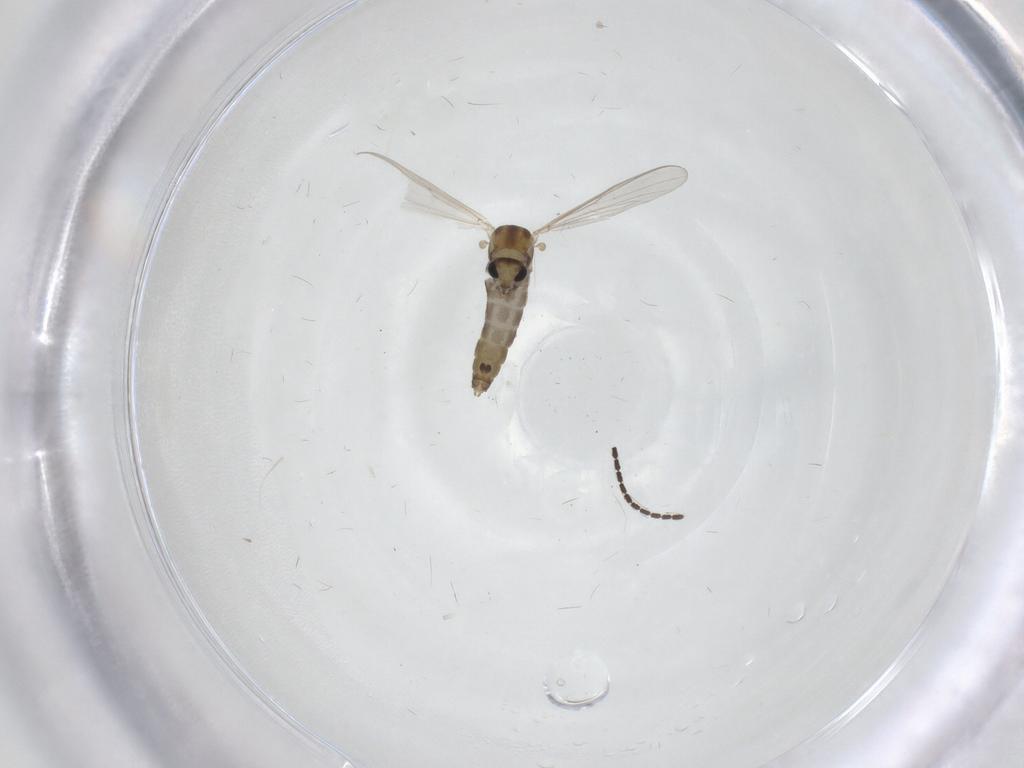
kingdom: Animalia
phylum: Arthropoda
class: Insecta
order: Diptera
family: Chironomidae
